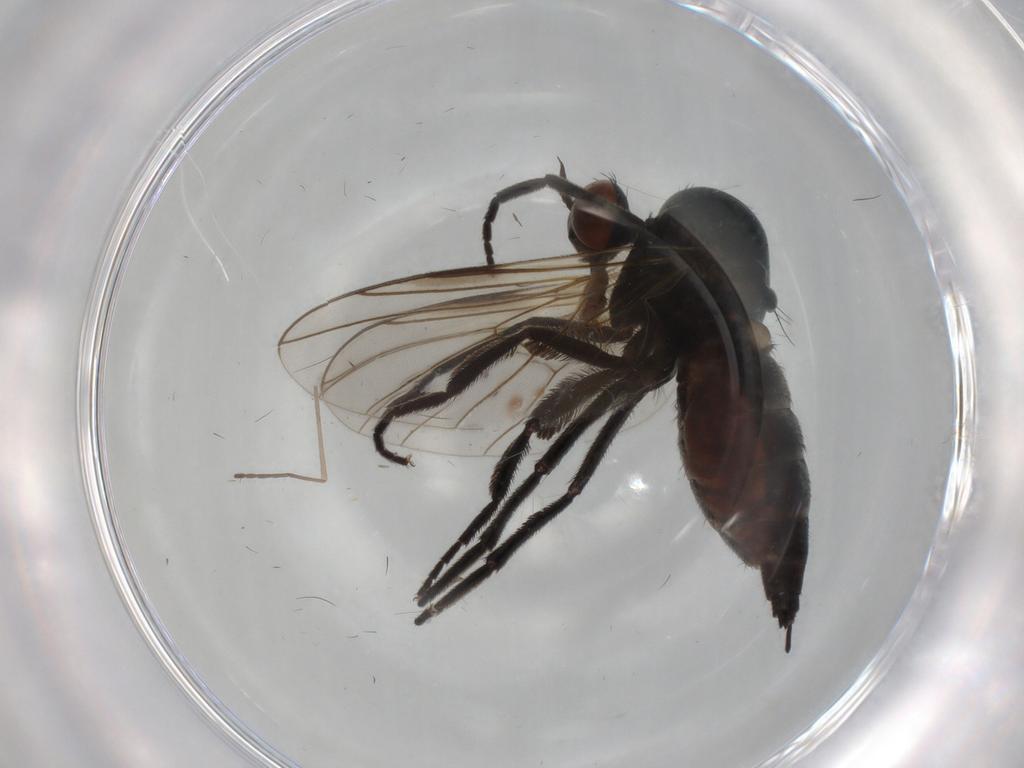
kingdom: Animalia
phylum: Arthropoda
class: Insecta
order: Diptera
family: Empididae
